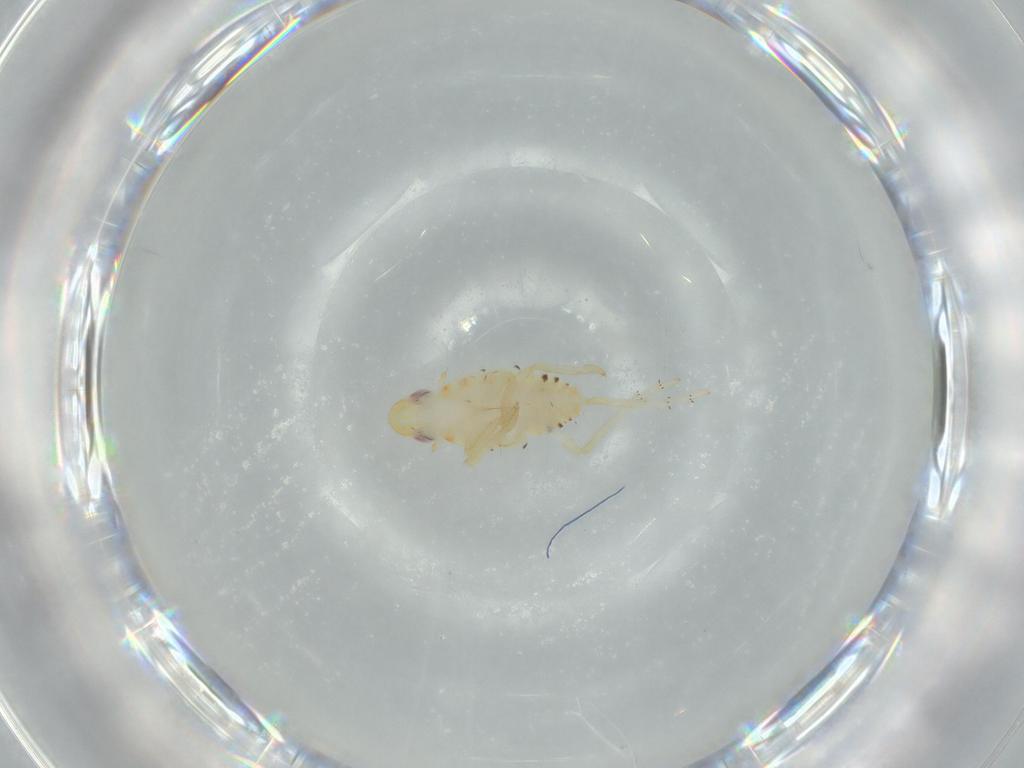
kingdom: Animalia
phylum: Arthropoda
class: Insecta
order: Hemiptera
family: Tropiduchidae
